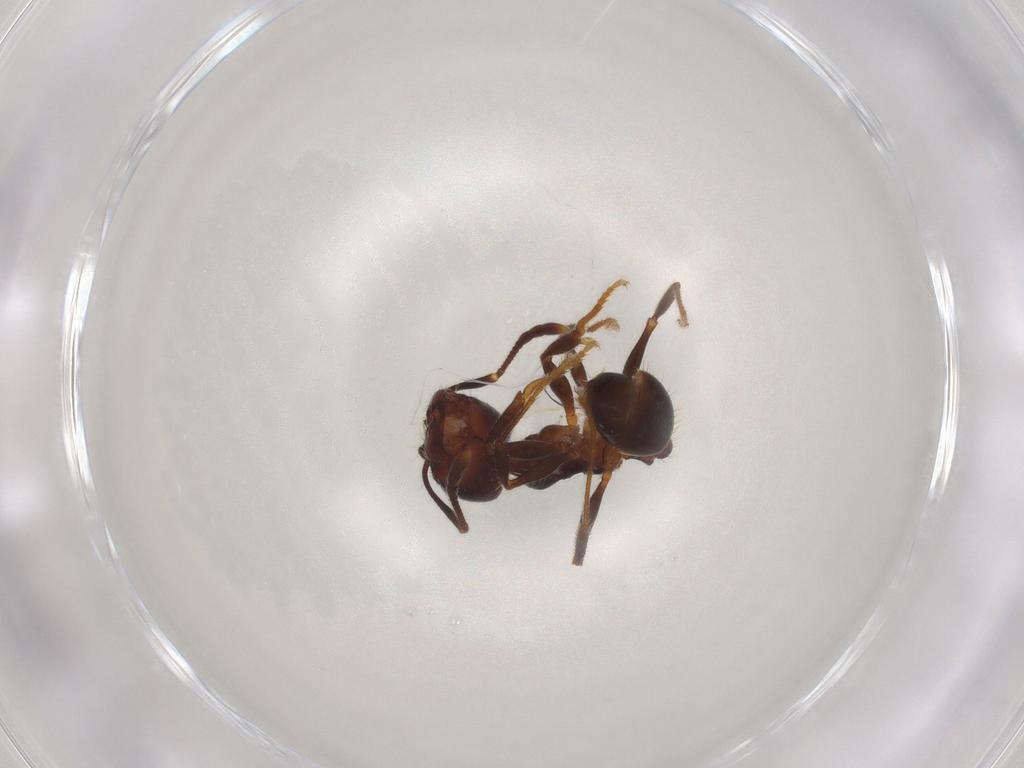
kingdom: Animalia
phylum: Arthropoda
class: Insecta
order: Hymenoptera
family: Formicidae
